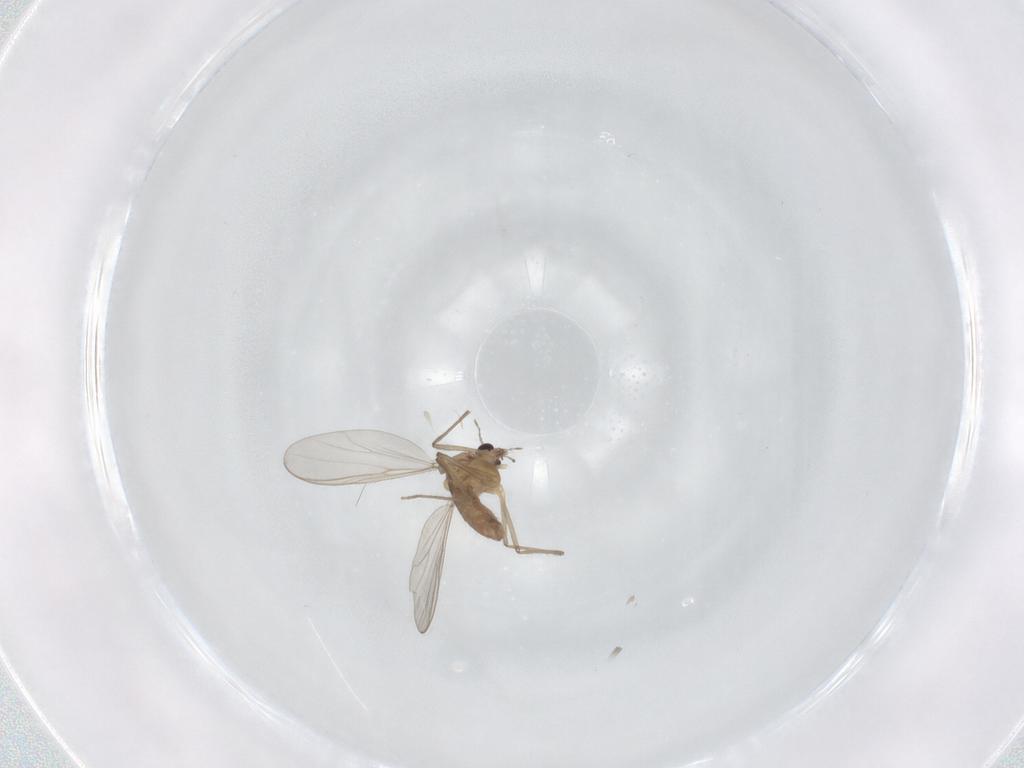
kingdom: Animalia
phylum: Arthropoda
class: Insecta
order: Diptera
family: Chironomidae
